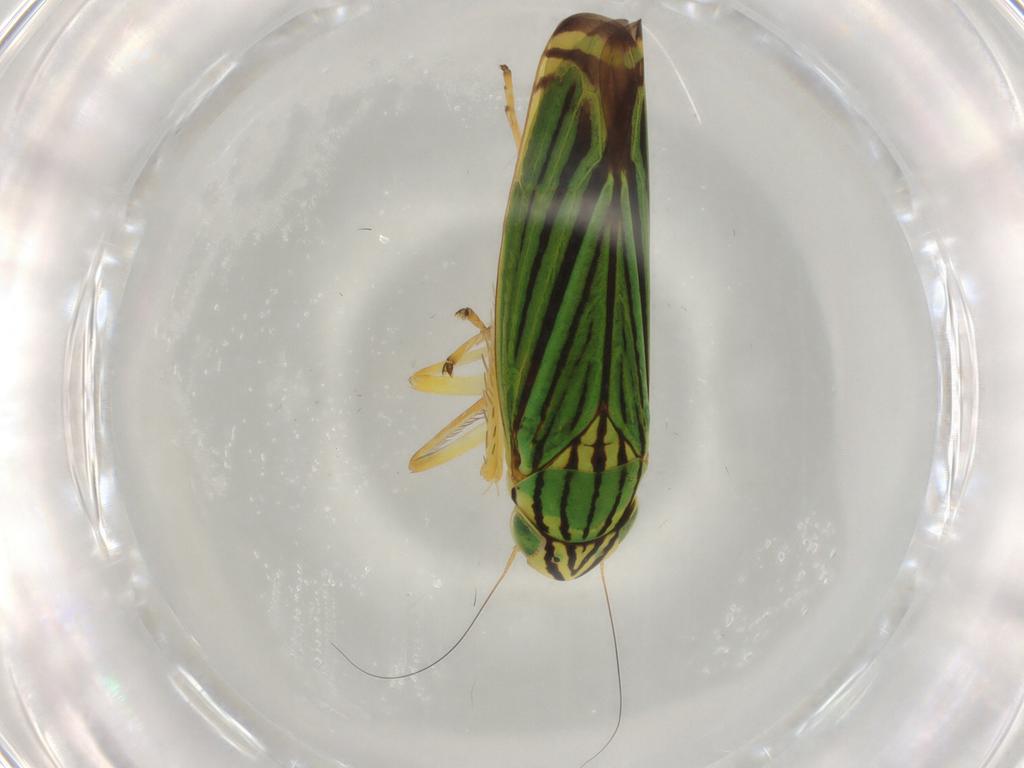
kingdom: Animalia
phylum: Arthropoda
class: Insecta
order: Hemiptera
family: Cicadellidae
